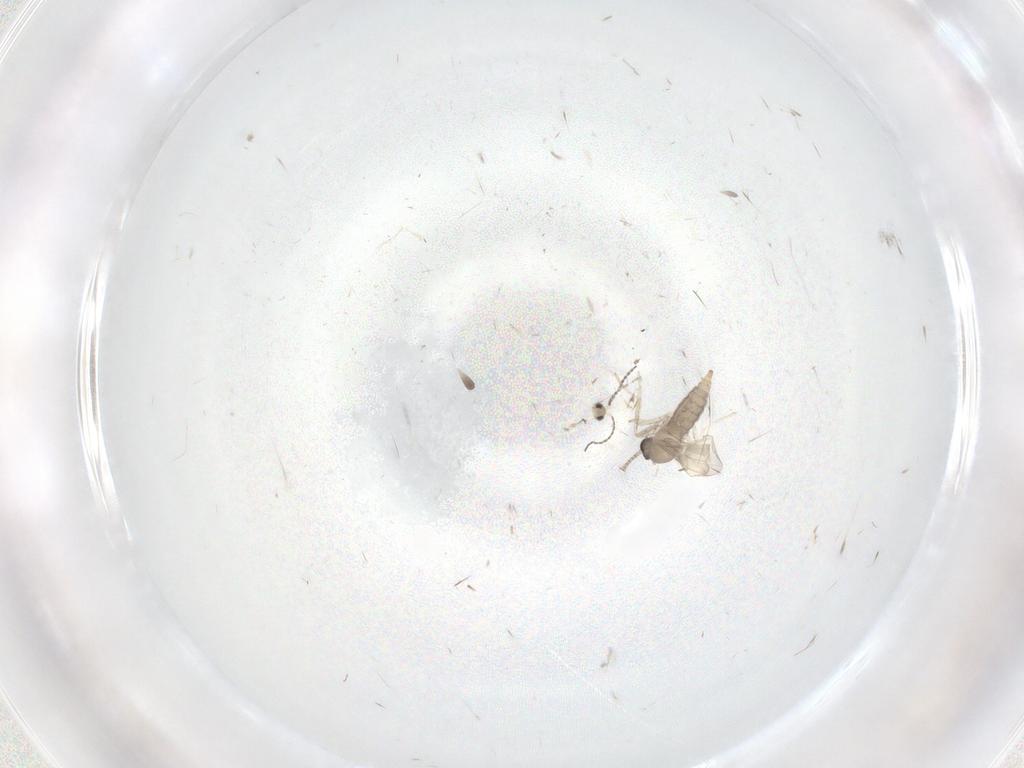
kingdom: Animalia
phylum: Arthropoda
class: Insecta
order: Diptera
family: Cecidomyiidae
